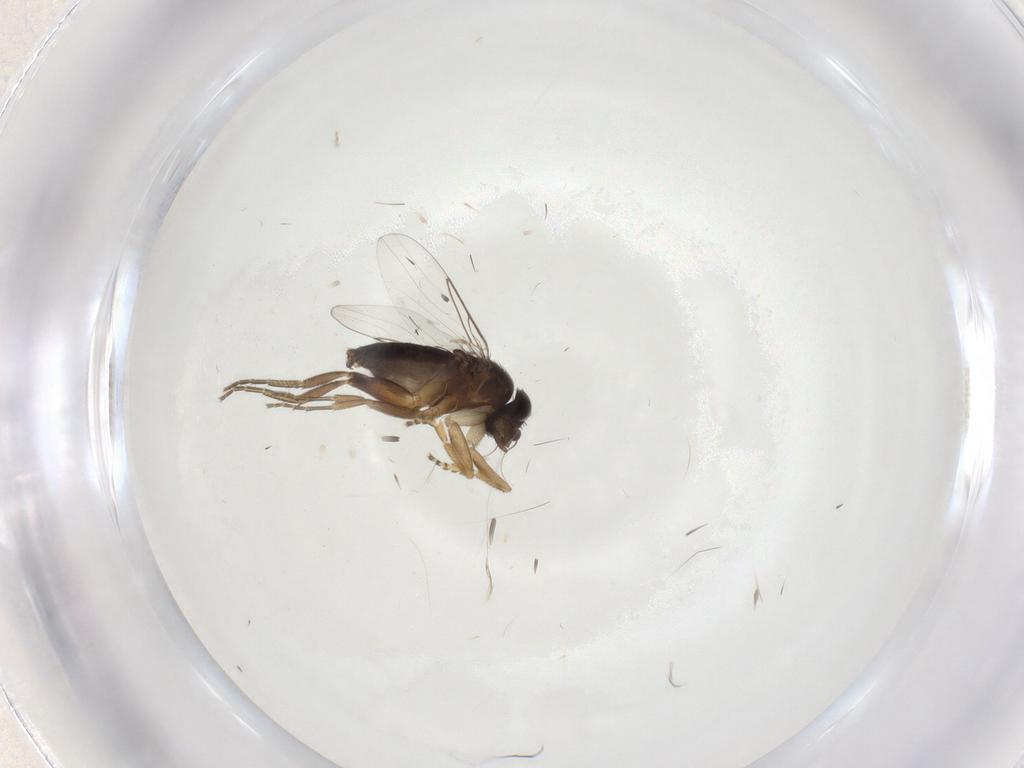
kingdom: Animalia
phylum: Arthropoda
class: Insecta
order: Diptera
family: Phoridae
